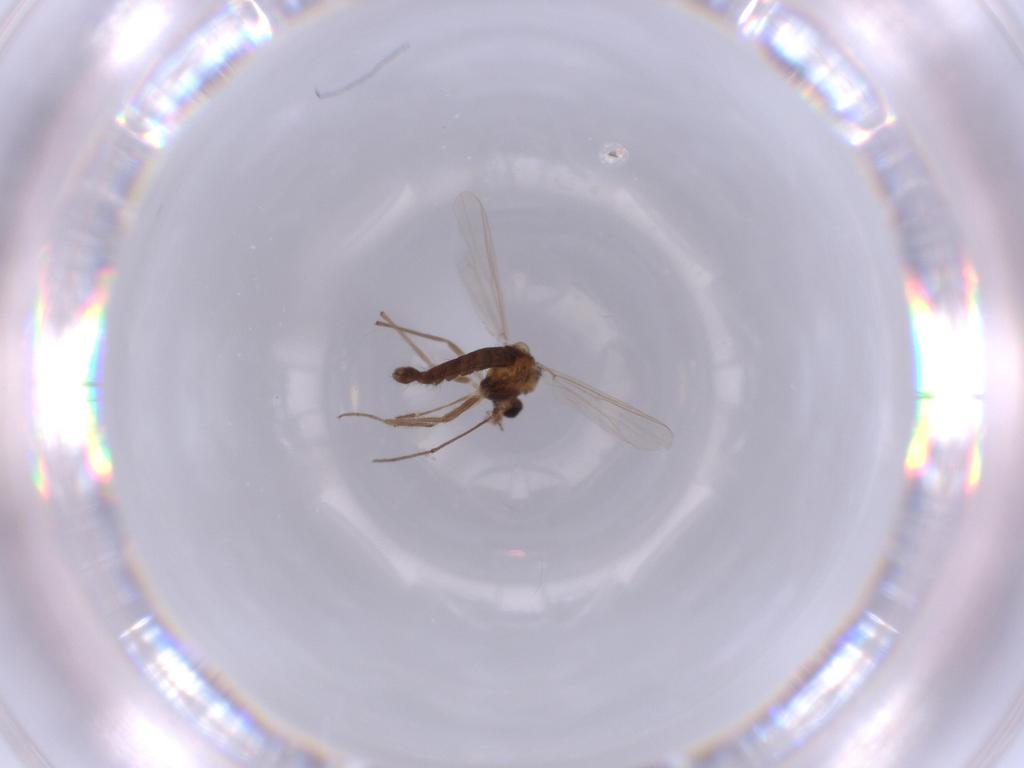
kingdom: Animalia
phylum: Arthropoda
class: Insecta
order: Diptera
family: Chironomidae
